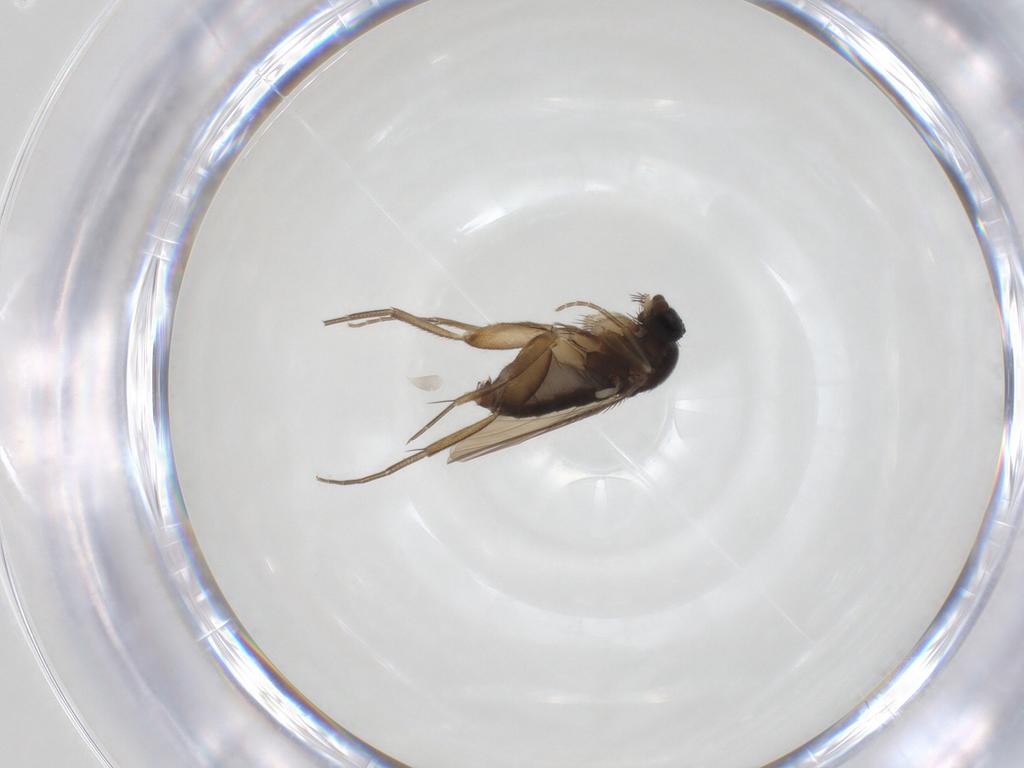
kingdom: Animalia
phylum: Arthropoda
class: Insecta
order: Diptera
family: Phoridae
